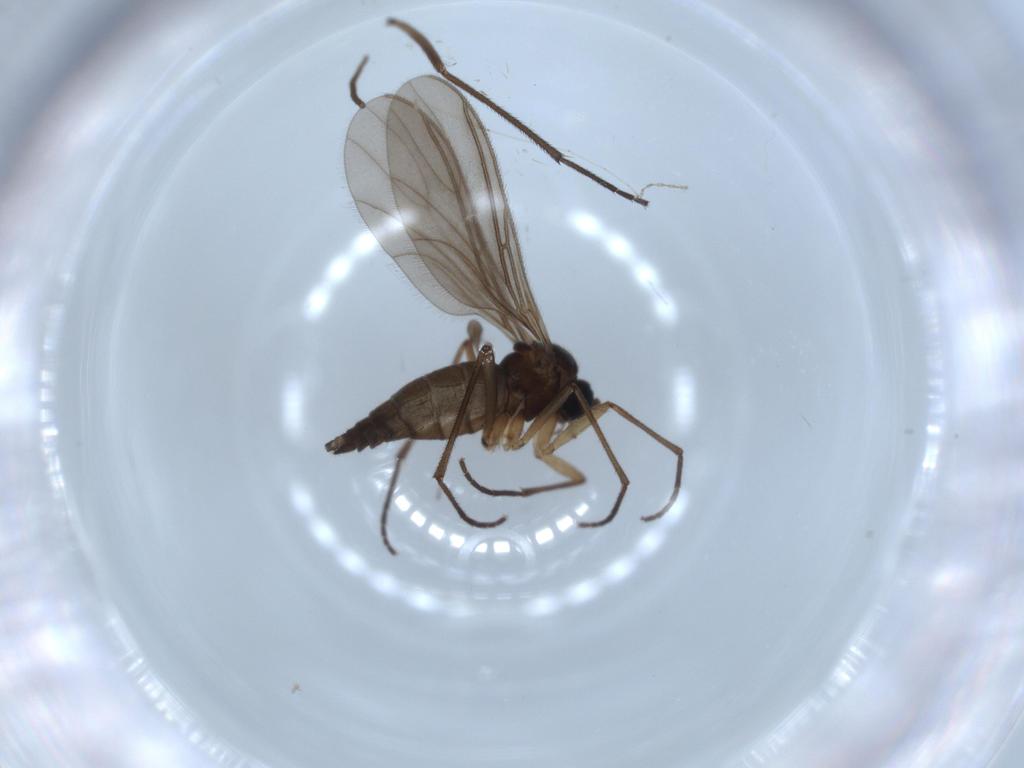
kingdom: Animalia
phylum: Arthropoda
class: Insecta
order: Diptera
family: Sciaridae
